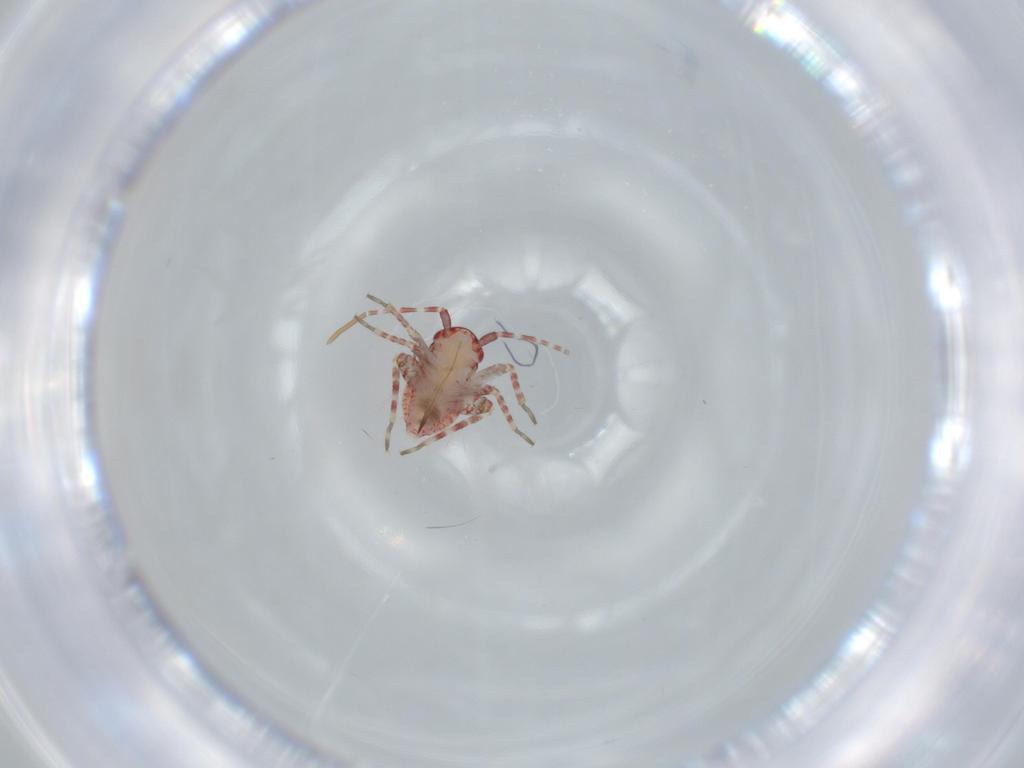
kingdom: Animalia
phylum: Arthropoda
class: Insecta
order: Hemiptera
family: Miridae
